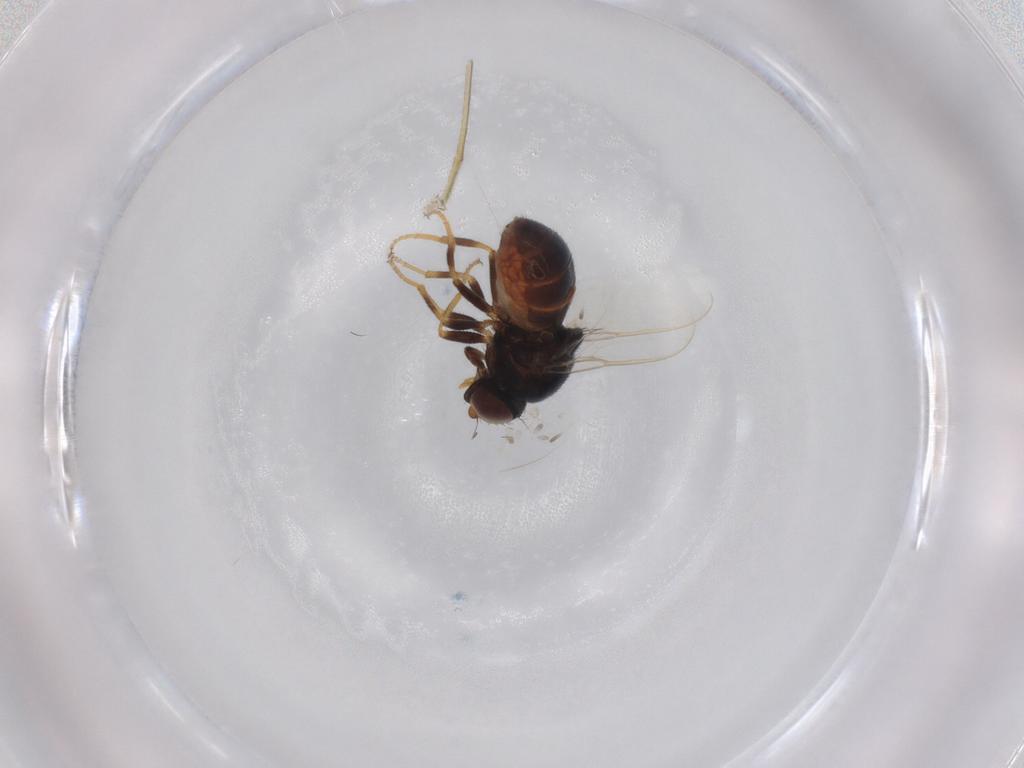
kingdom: Animalia
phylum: Arthropoda
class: Insecta
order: Diptera
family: Chloropidae
